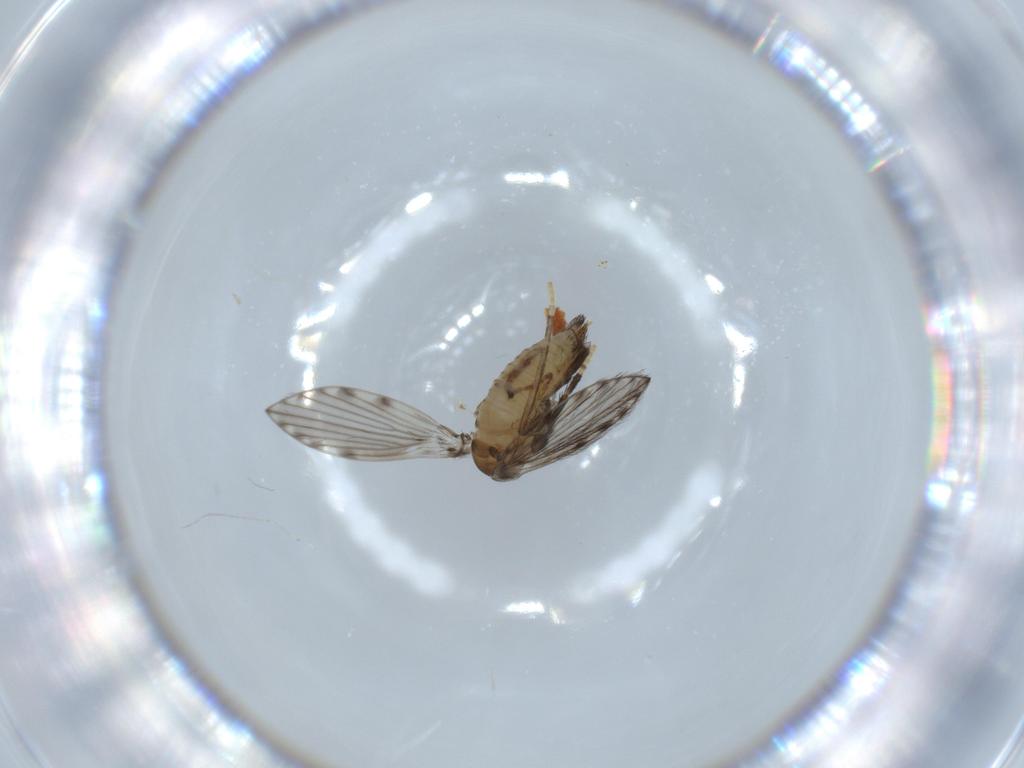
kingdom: Animalia
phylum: Arthropoda
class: Insecta
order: Diptera
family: Psychodidae
